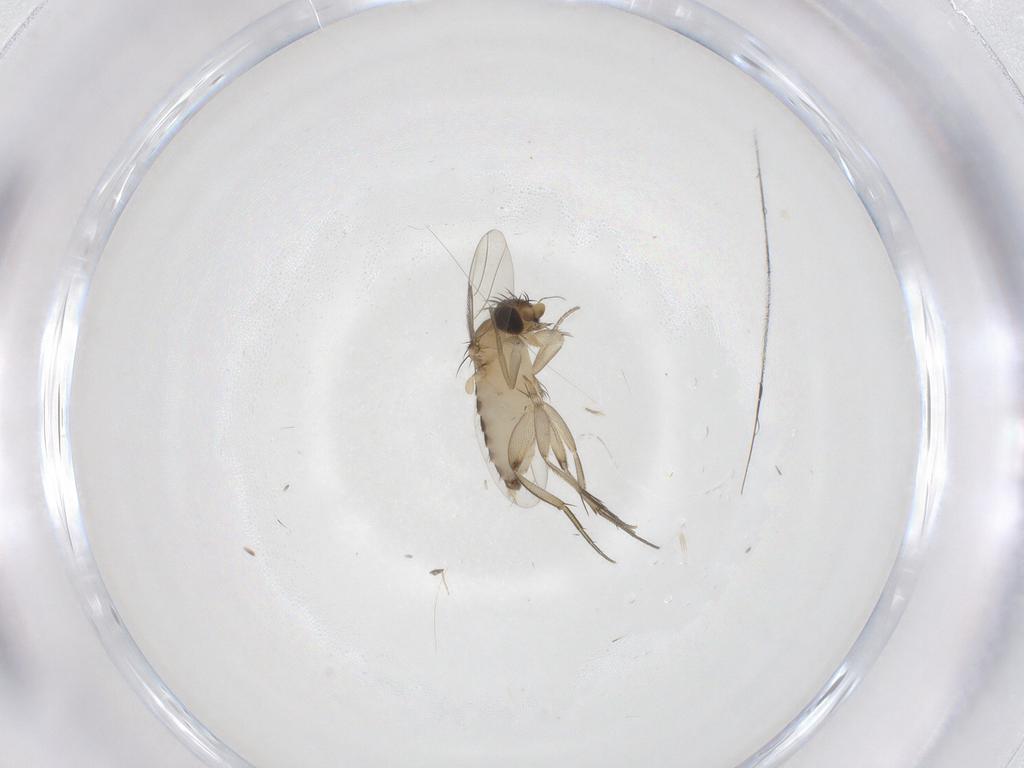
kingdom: Animalia
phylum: Arthropoda
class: Insecta
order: Diptera
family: Phoridae
